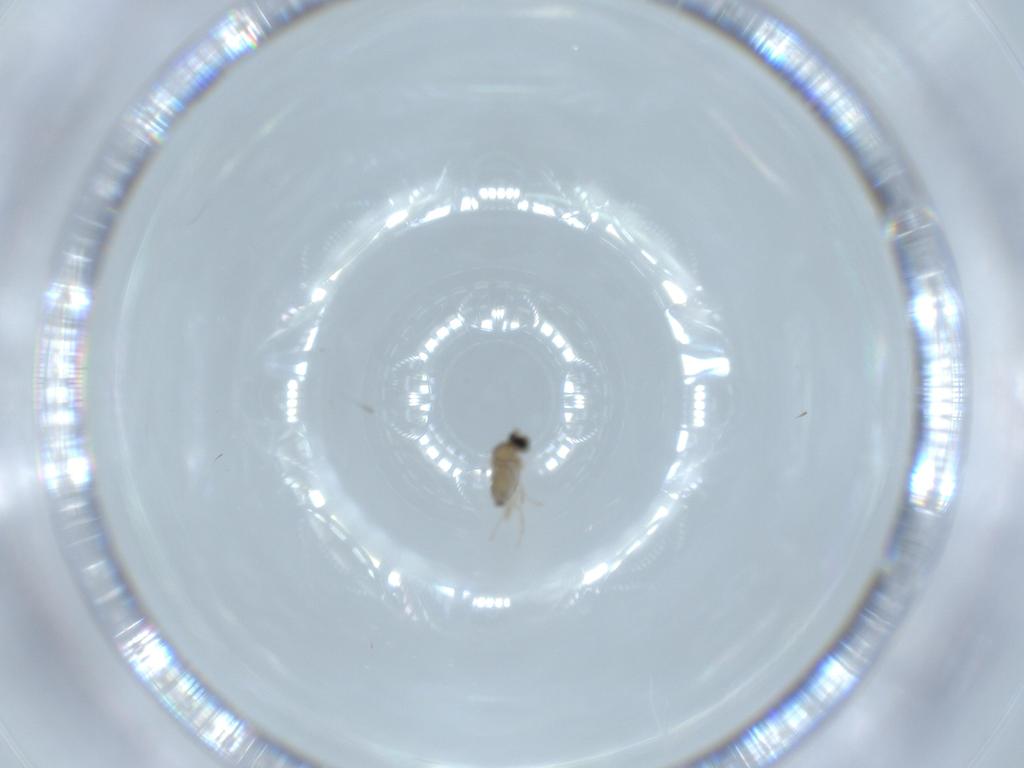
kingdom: Animalia
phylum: Arthropoda
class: Insecta
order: Diptera
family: Cecidomyiidae
